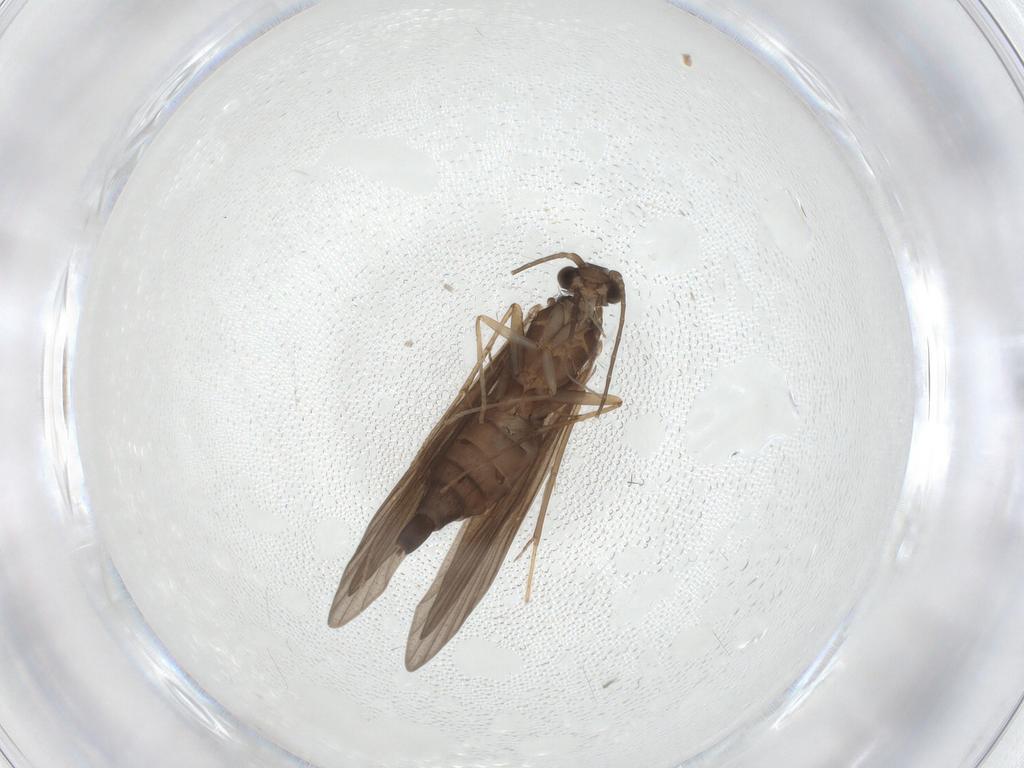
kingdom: Animalia
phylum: Arthropoda
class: Insecta
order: Trichoptera
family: Xiphocentronidae
